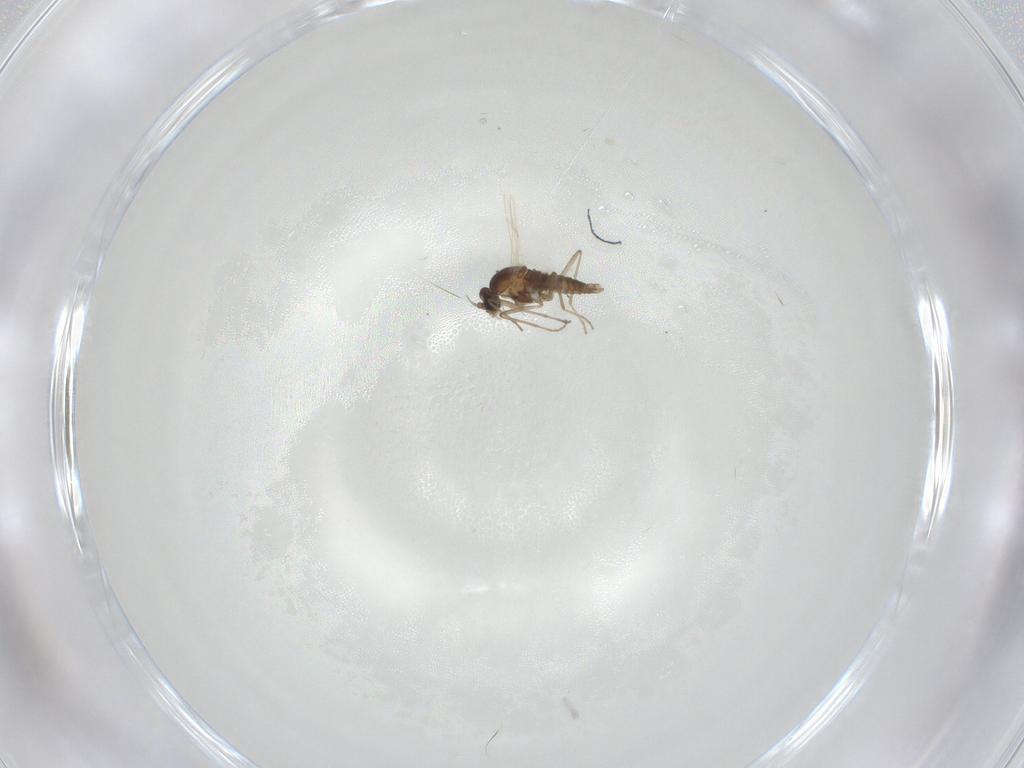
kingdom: Animalia
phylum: Arthropoda
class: Insecta
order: Diptera
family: Cecidomyiidae
